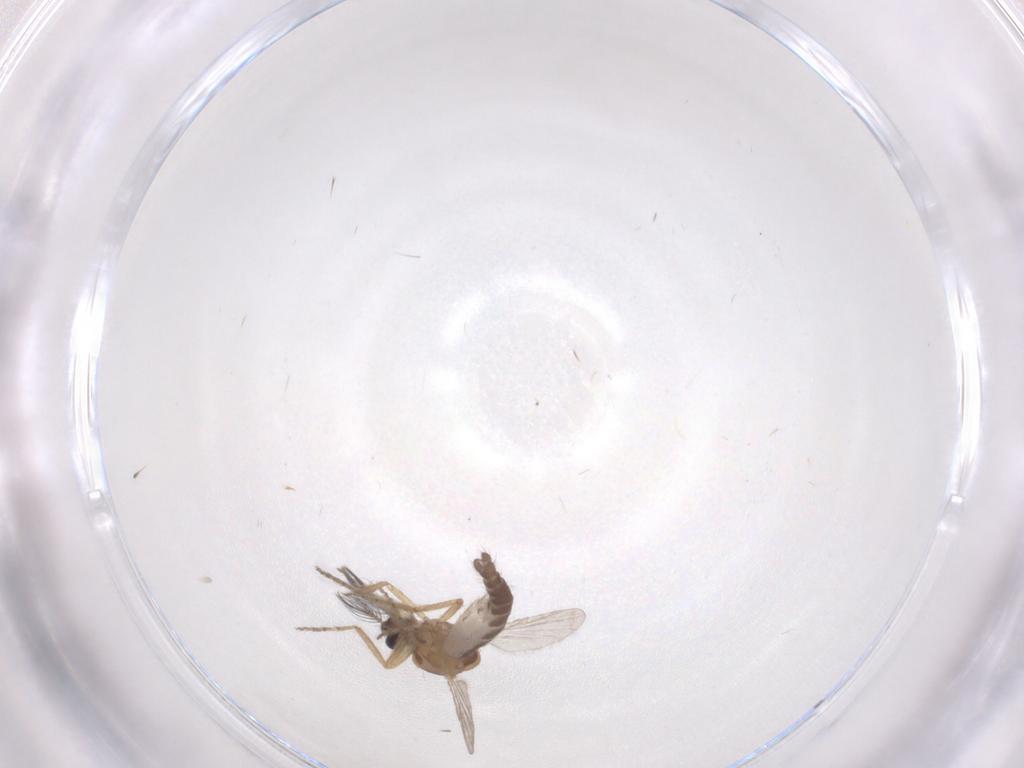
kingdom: Animalia
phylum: Arthropoda
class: Insecta
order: Diptera
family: Ceratopogonidae
